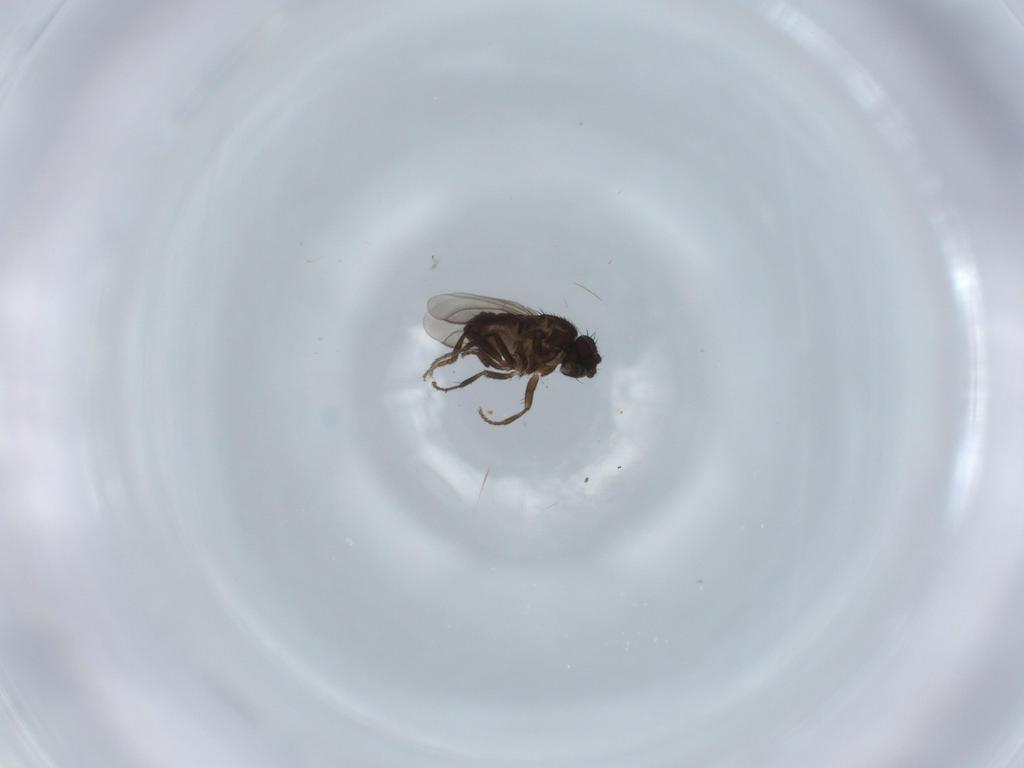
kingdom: Animalia
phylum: Arthropoda
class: Insecta
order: Diptera
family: Sphaeroceridae
